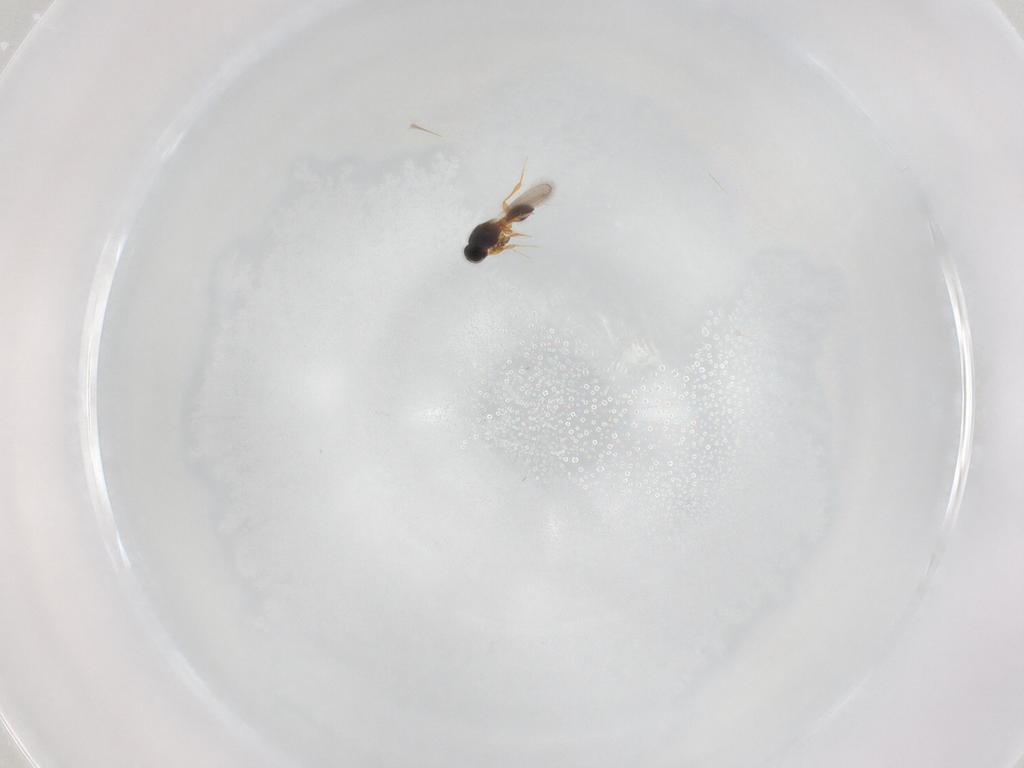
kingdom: Animalia
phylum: Arthropoda
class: Insecta
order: Hymenoptera
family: Platygastridae
